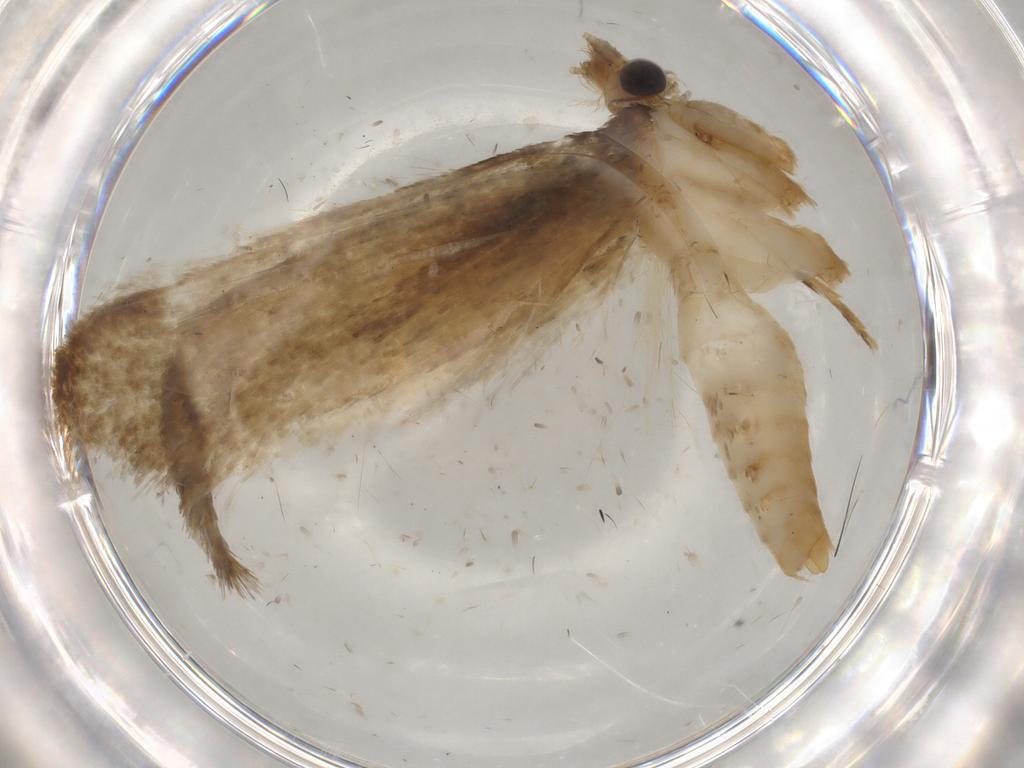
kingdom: Animalia
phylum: Arthropoda
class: Insecta
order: Lepidoptera
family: Tineidae
